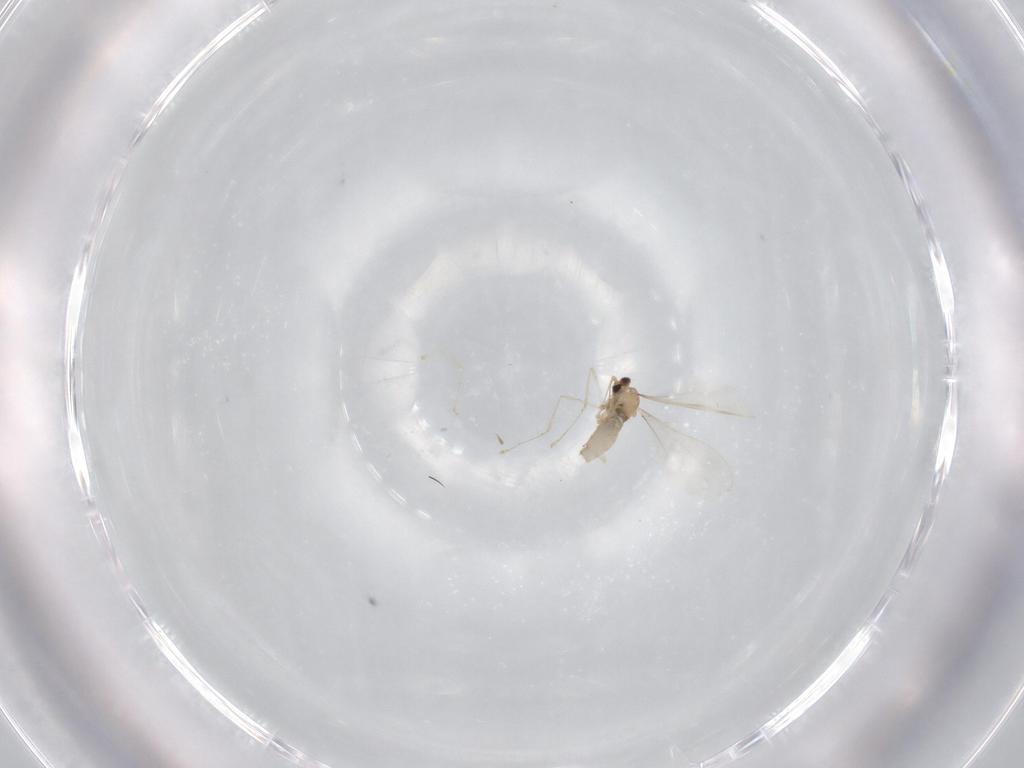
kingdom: Animalia
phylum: Arthropoda
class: Insecta
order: Diptera
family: Cecidomyiidae
